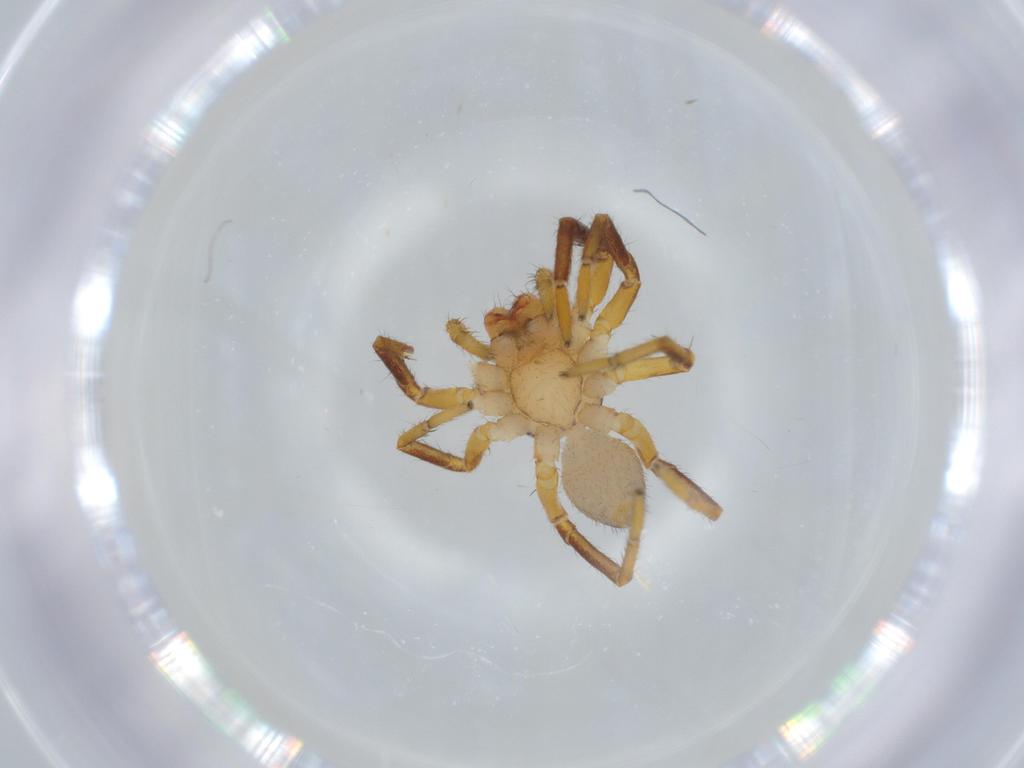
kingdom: Animalia
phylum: Arthropoda
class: Arachnida
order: Araneae
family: Corinnidae
